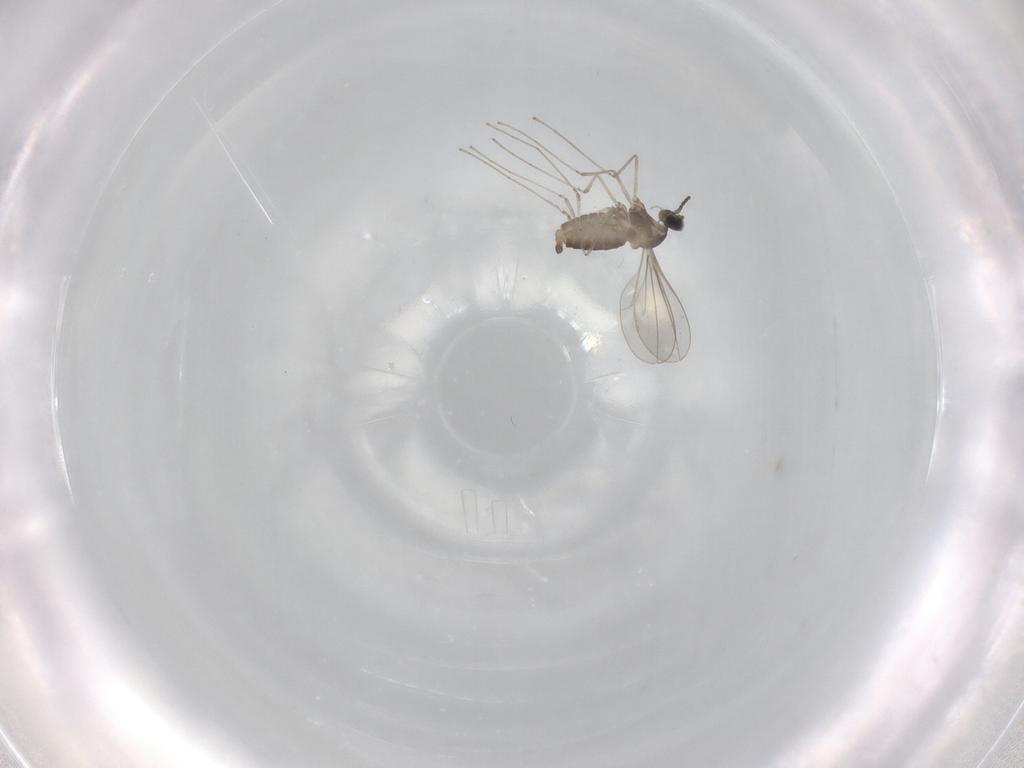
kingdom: Animalia
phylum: Arthropoda
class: Insecta
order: Diptera
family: Cecidomyiidae
